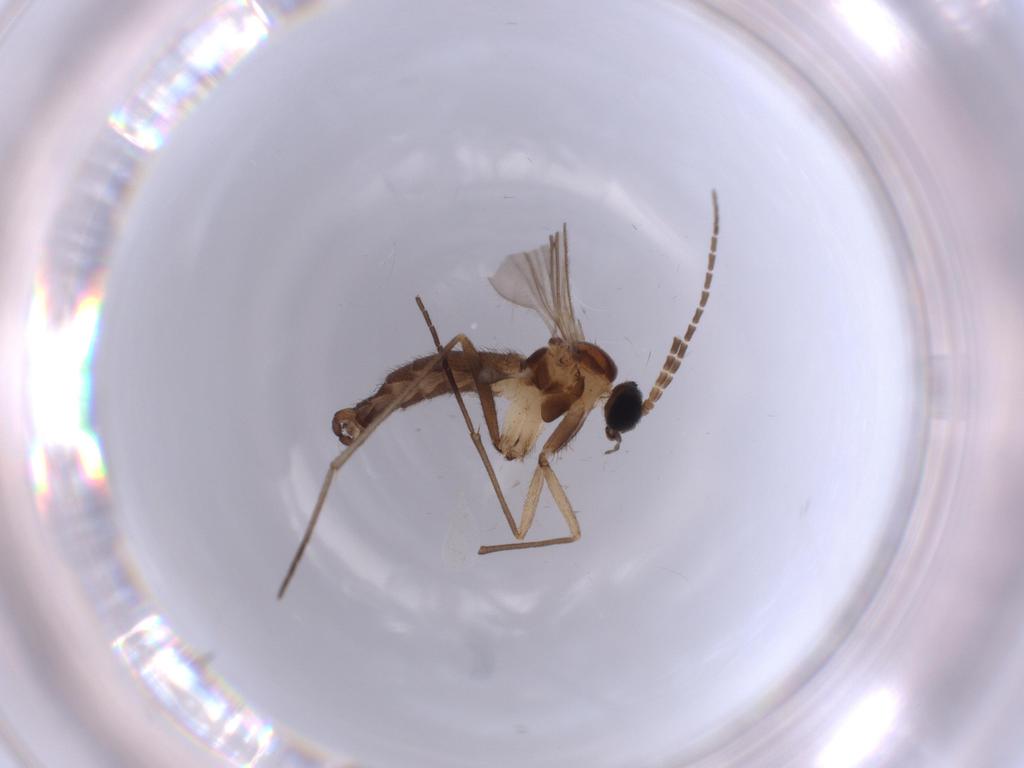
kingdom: Animalia
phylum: Arthropoda
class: Insecta
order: Diptera
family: Sciaridae
